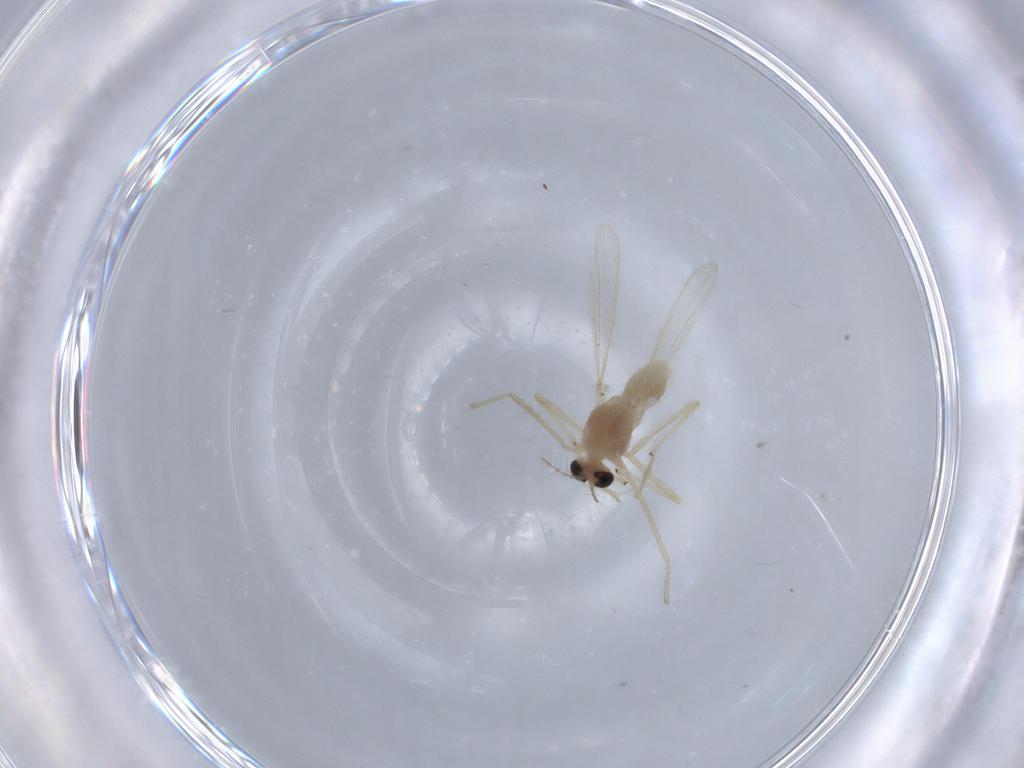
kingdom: Animalia
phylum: Arthropoda
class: Insecta
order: Diptera
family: Chironomidae
